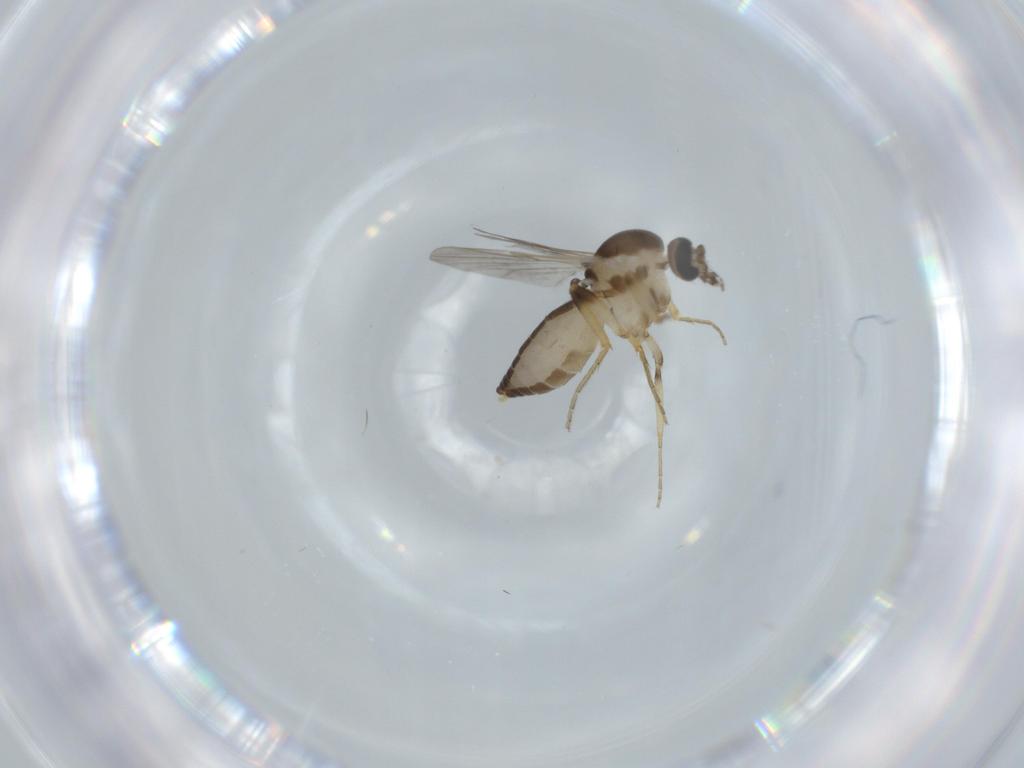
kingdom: Animalia
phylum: Arthropoda
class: Insecta
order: Diptera
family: Ceratopogonidae
